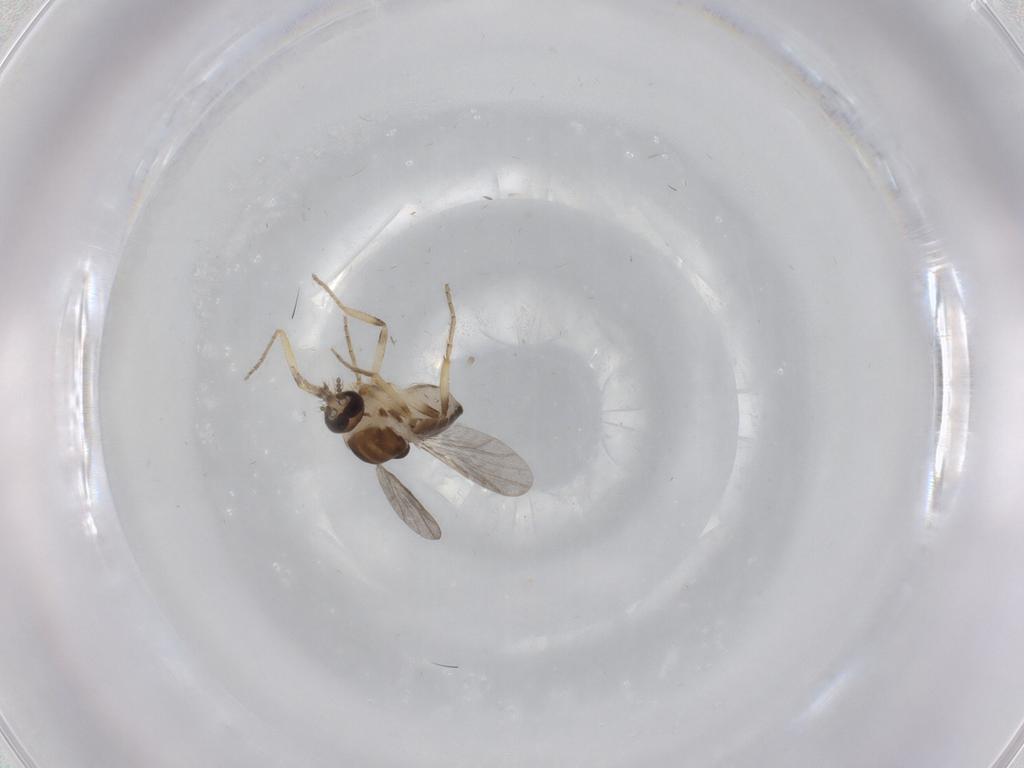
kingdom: Animalia
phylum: Arthropoda
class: Insecta
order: Diptera
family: Ceratopogonidae
